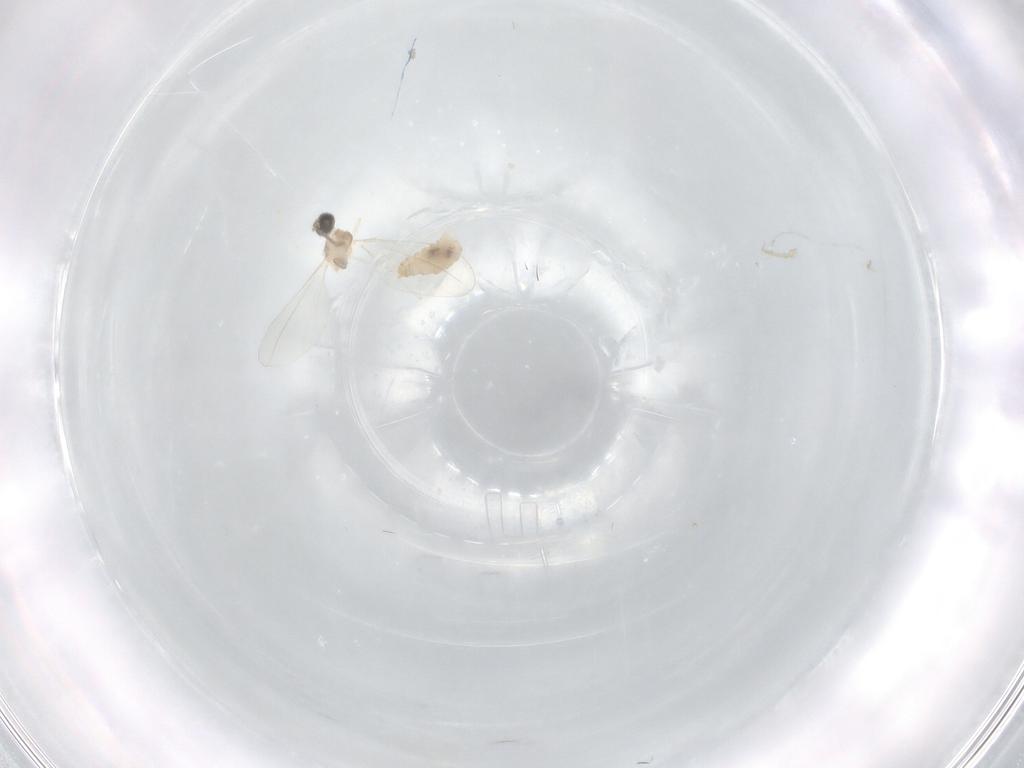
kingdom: Animalia
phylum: Arthropoda
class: Insecta
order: Diptera
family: Cecidomyiidae
